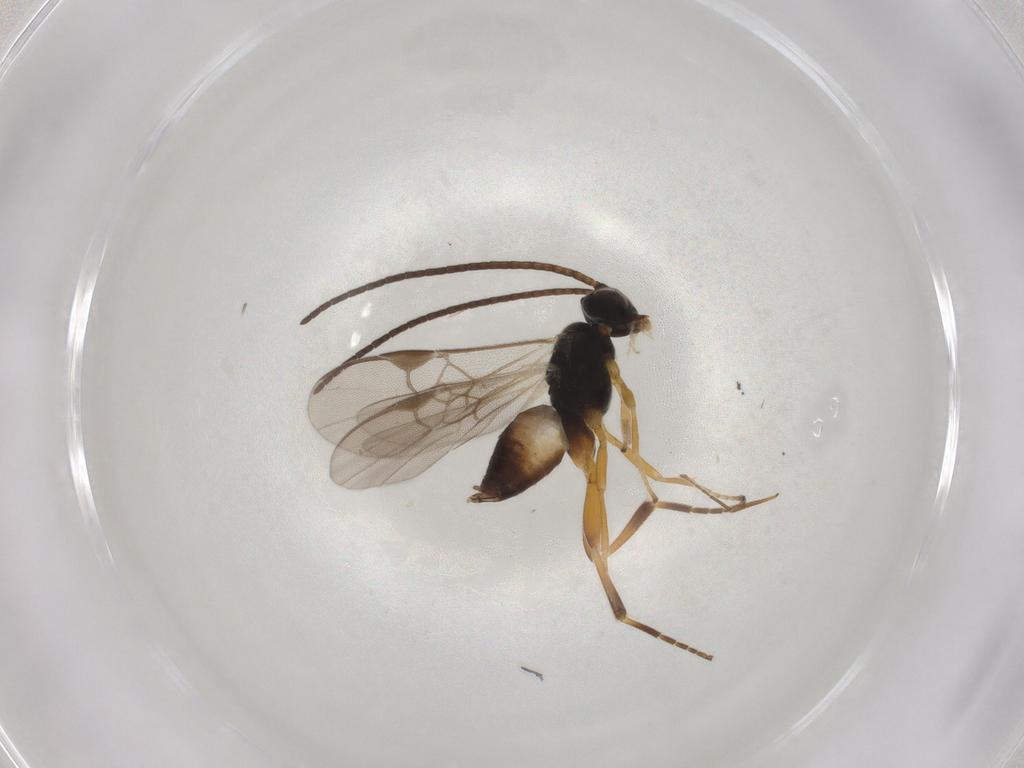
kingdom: Animalia
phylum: Arthropoda
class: Insecta
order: Hymenoptera
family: Braconidae
